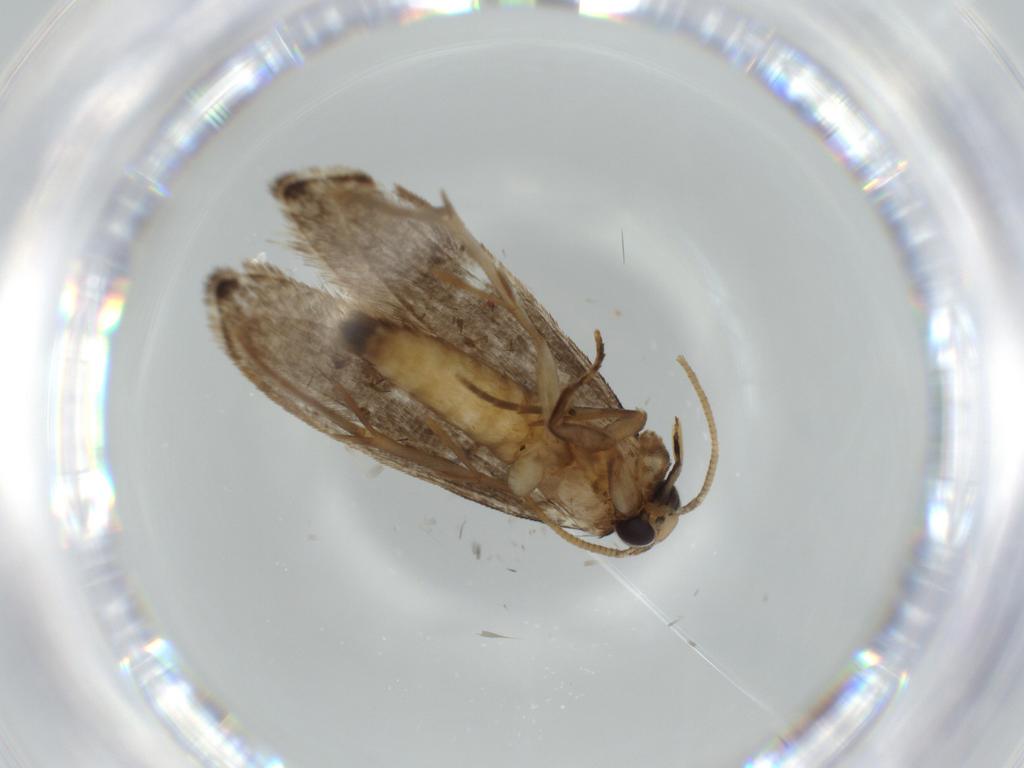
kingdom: Animalia
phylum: Arthropoda
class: Insecta
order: Lepidoptera
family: Tineidae
